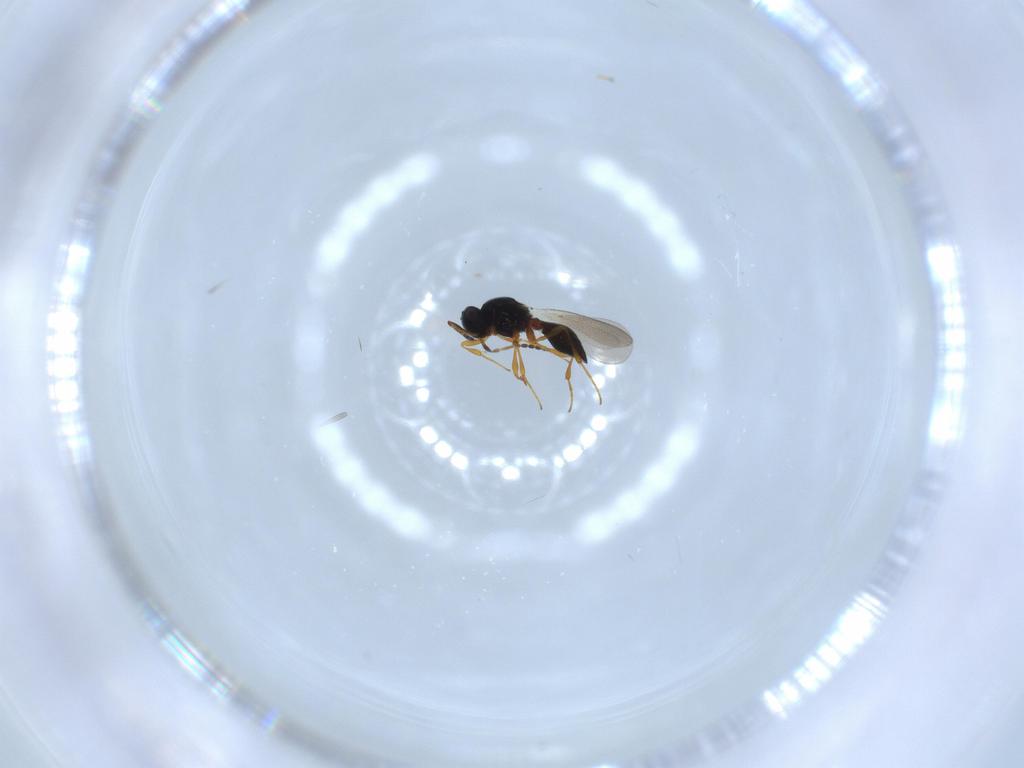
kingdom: Animalia
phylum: Arthropoda
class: Insecta
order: Hymenoptera
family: Platygastridae
